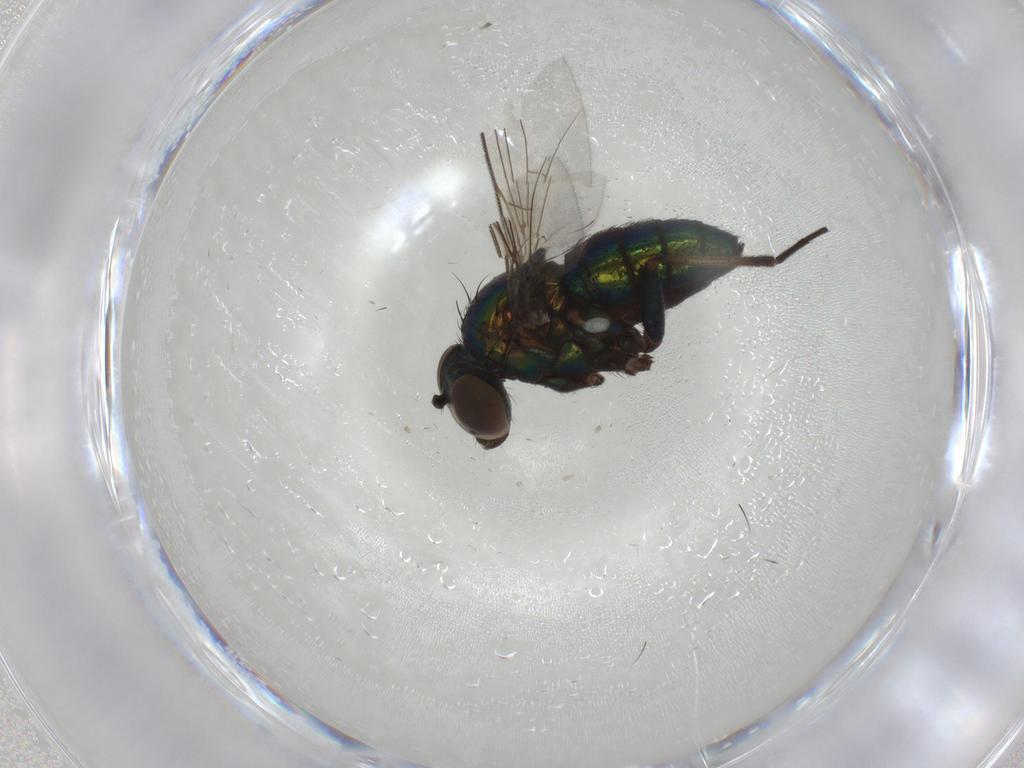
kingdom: Animalia
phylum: Arthropoda
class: Insecta
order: Diptera
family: Dolichopodidae
